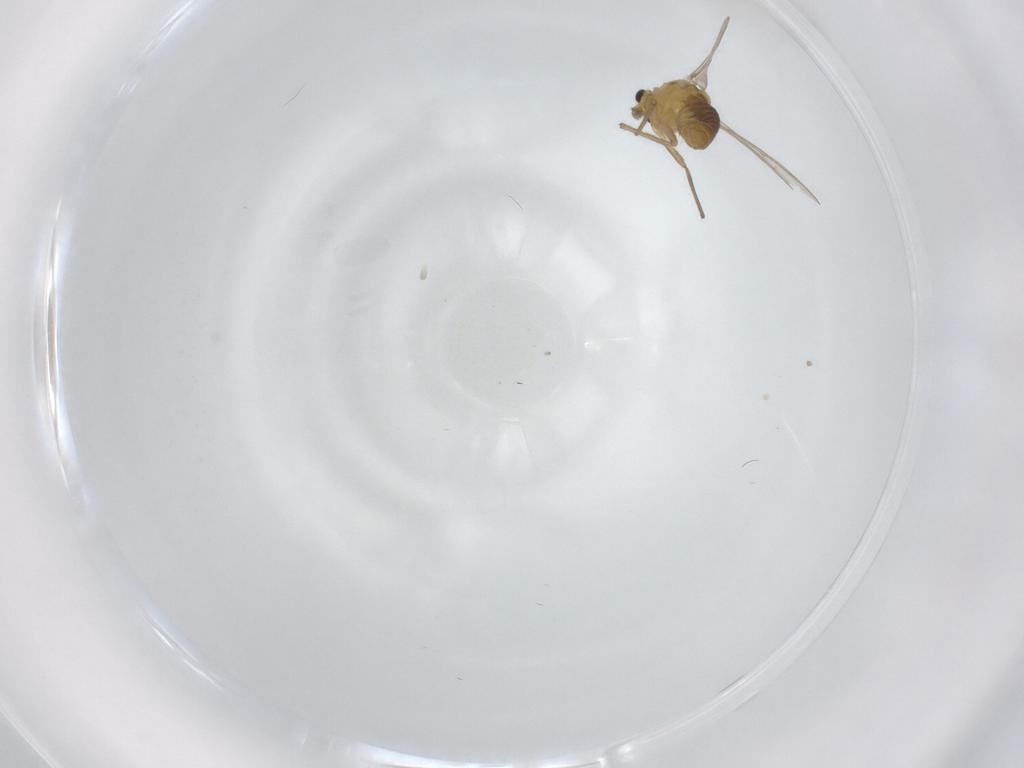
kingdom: Animalia
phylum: Arthropoda
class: Insecta
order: Diptera
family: Chironomidae
